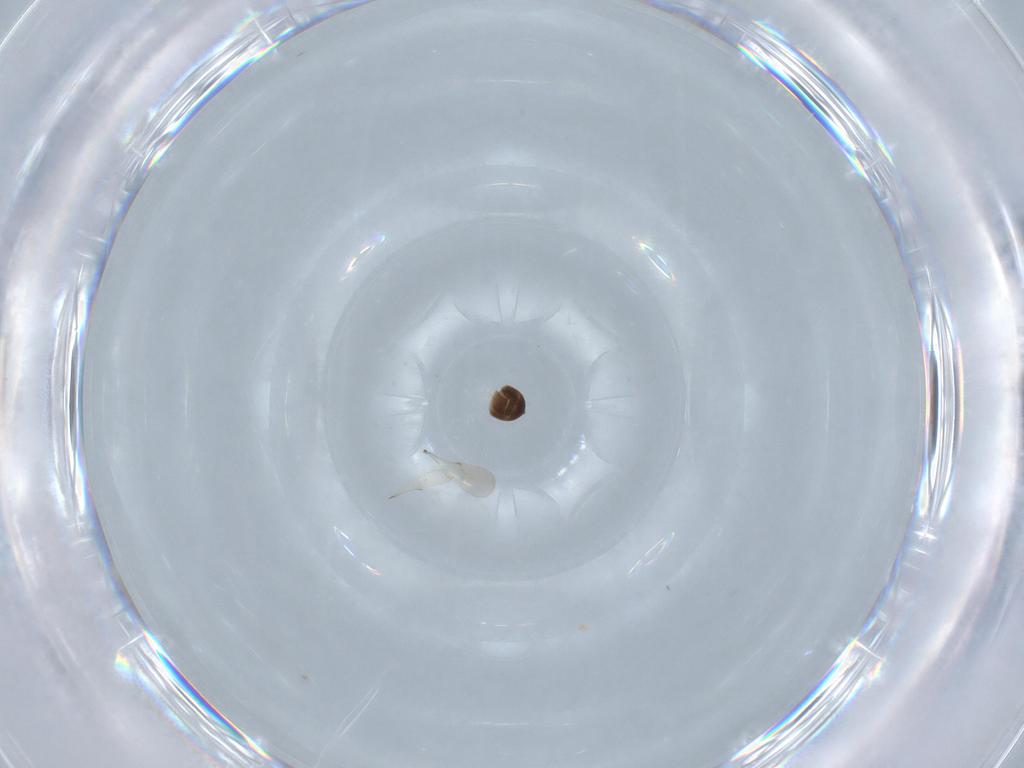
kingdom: Animalia
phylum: Arthropoda
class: Insecta
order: Hymenoptera
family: Scelionidae
